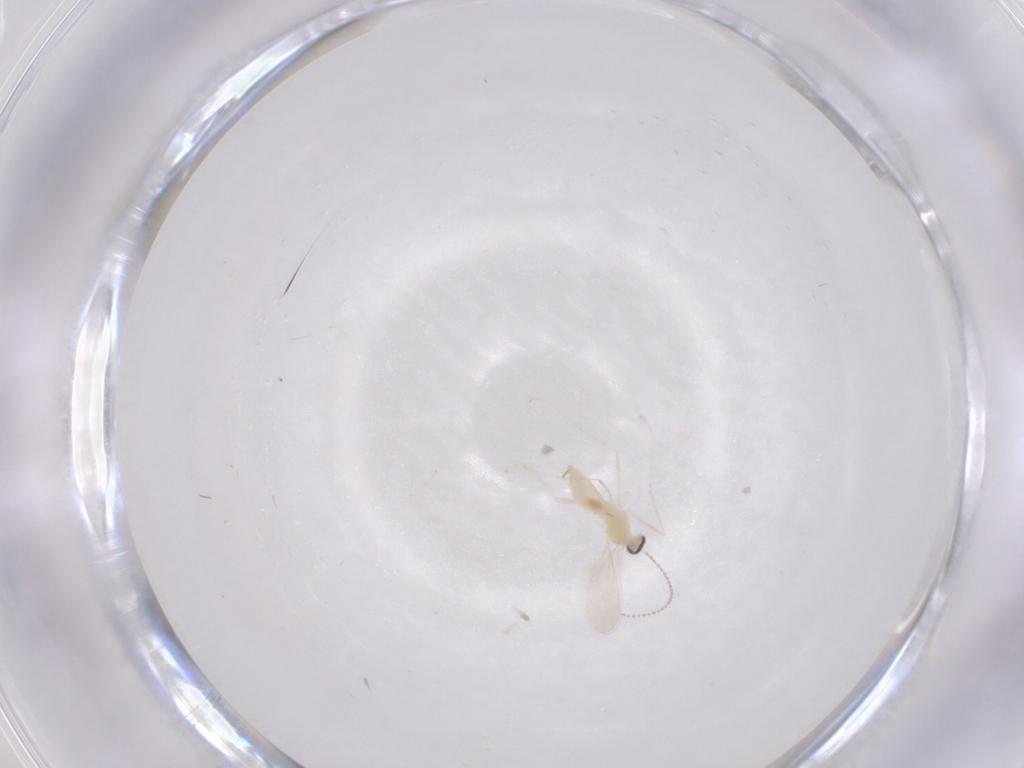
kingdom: Animalia
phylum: Arthropoda
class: Insecta
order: Diptera
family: Cecidomyiidae
